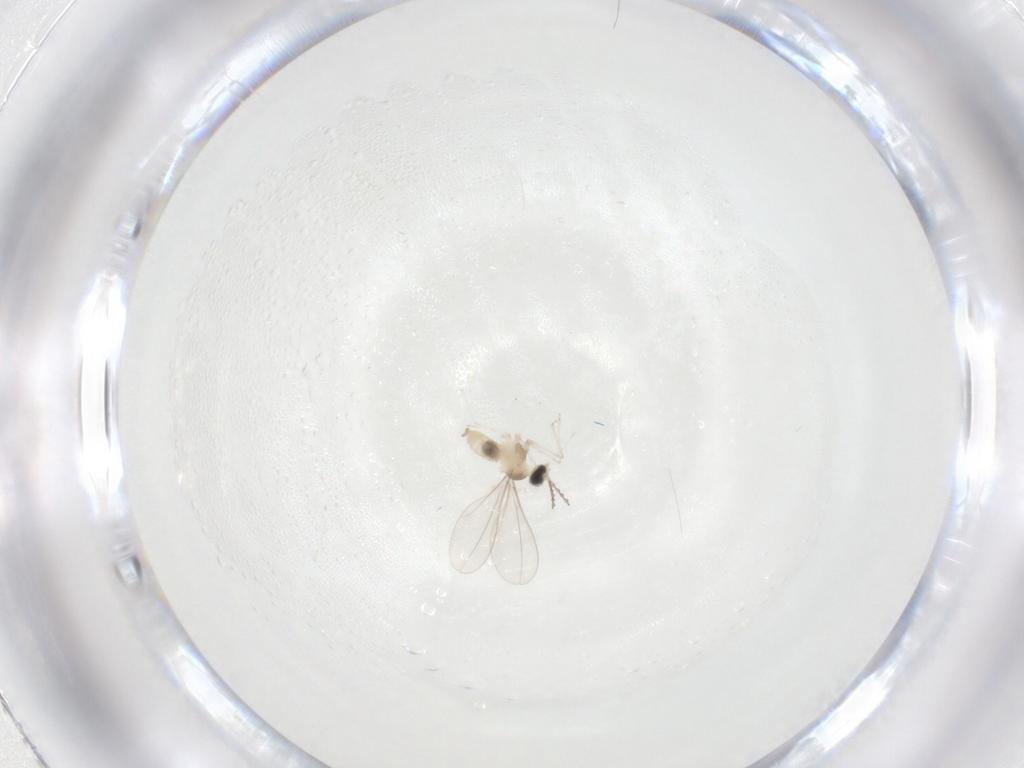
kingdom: Animalia
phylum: Arthropoda
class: Insecta
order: Diptera
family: Cecidomyiidae
